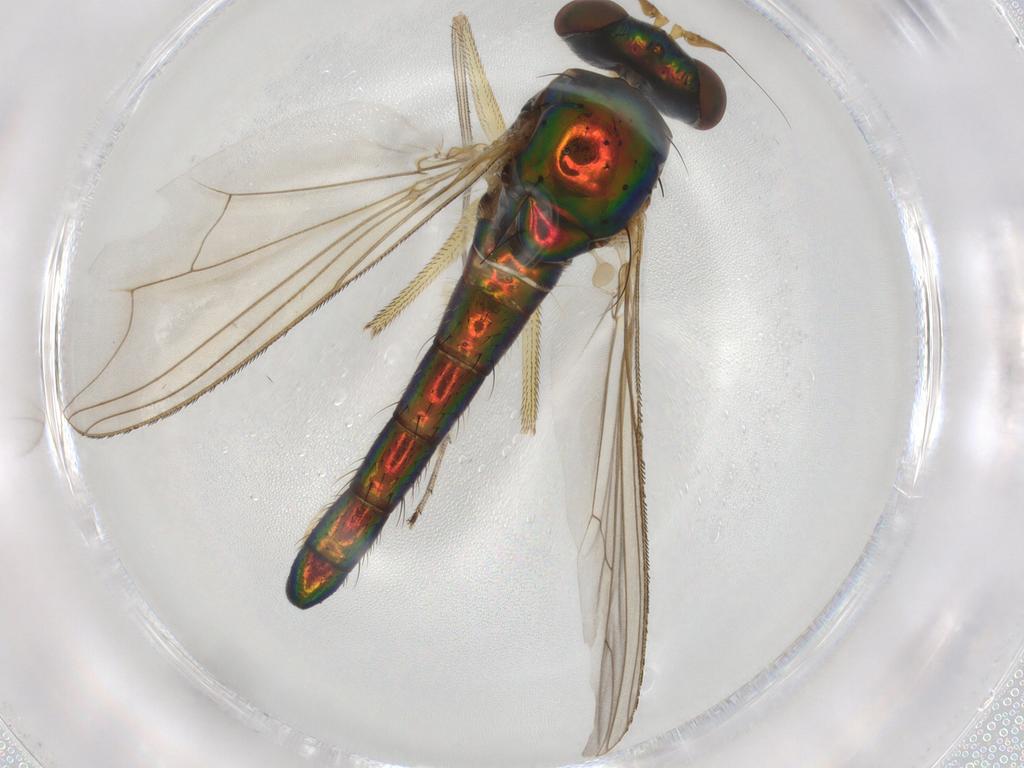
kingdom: Animalia
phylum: Arthropoda
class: Insecta
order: Diptera
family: Dolichopodidae
